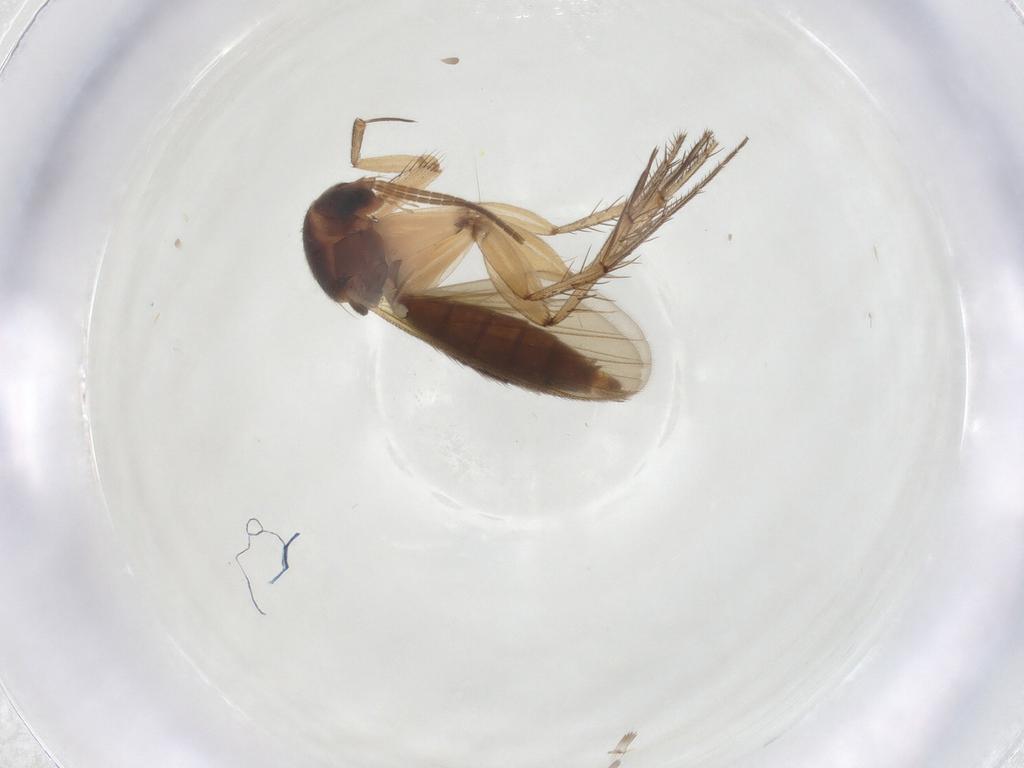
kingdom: Animalia
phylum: Arthropoda
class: Insecta
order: Diptera
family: Mycetophilidae
